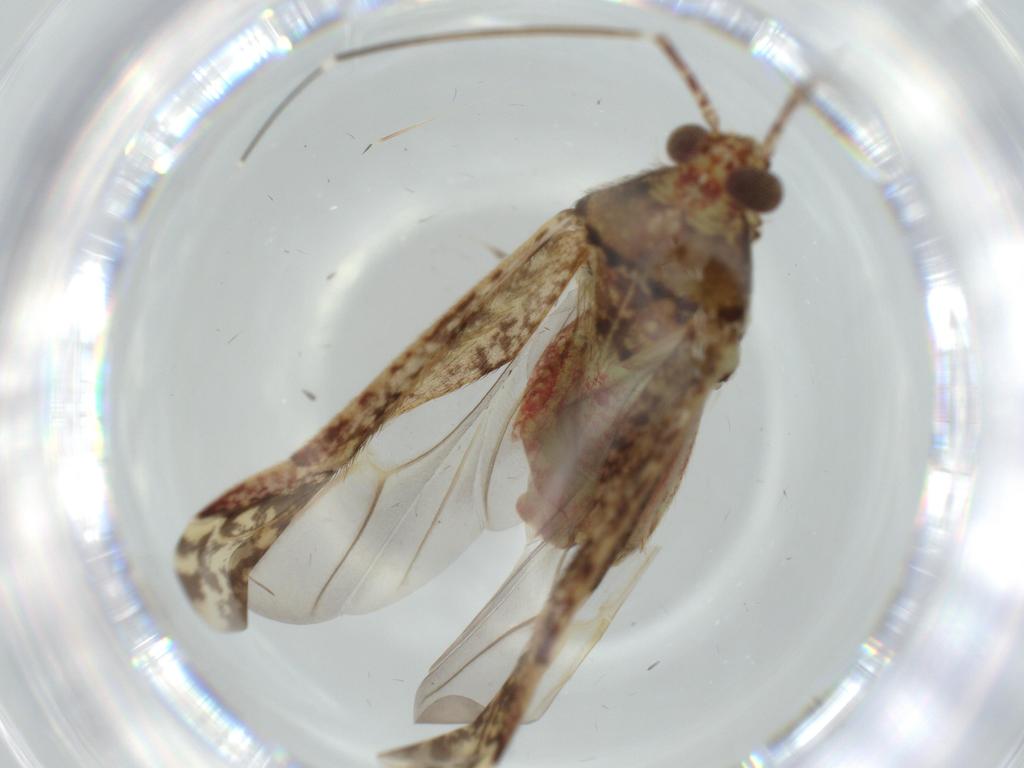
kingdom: Animalia
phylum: Arthropoda
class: Insecta
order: Hemiptera
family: Miridae
